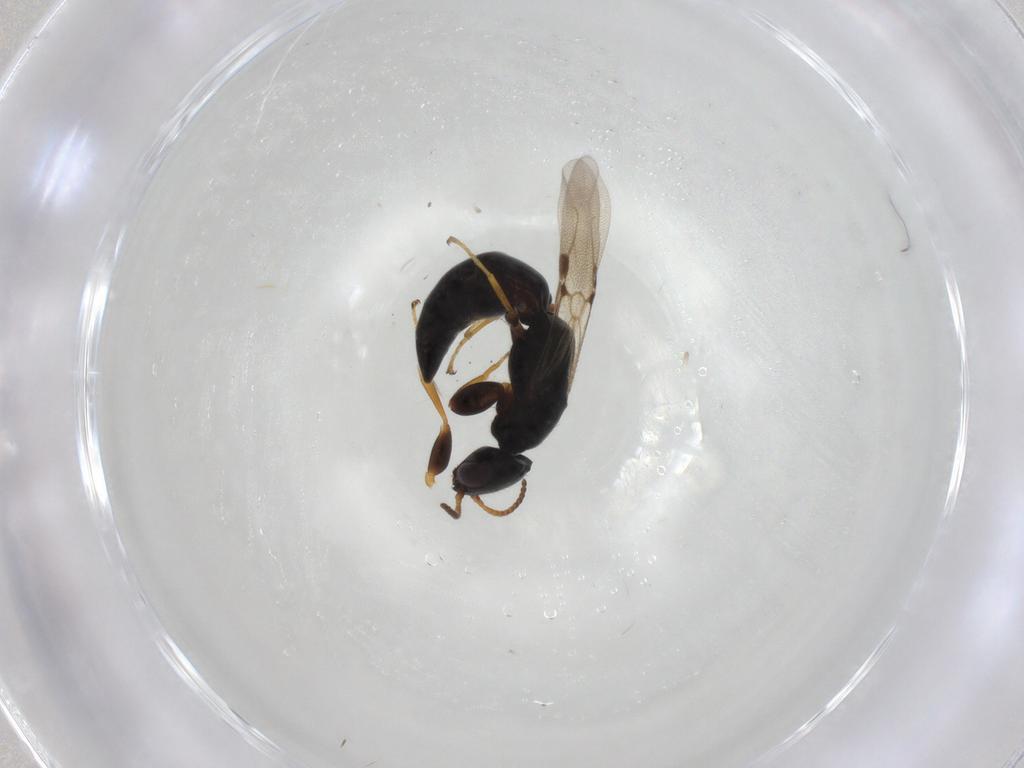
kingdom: Animalia
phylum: Arthropoda
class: Insecta
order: Hymenoptera
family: Bethylidae
